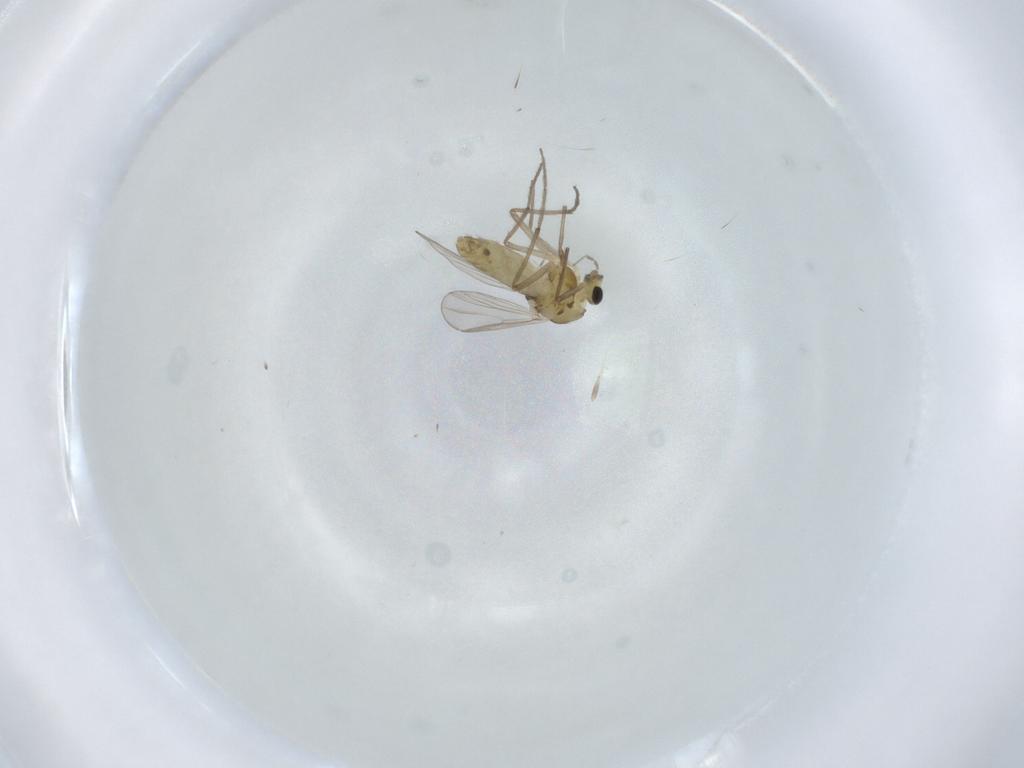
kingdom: Animalia
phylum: Arthropoda
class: Insecta
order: Diptera
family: Chironomidae
